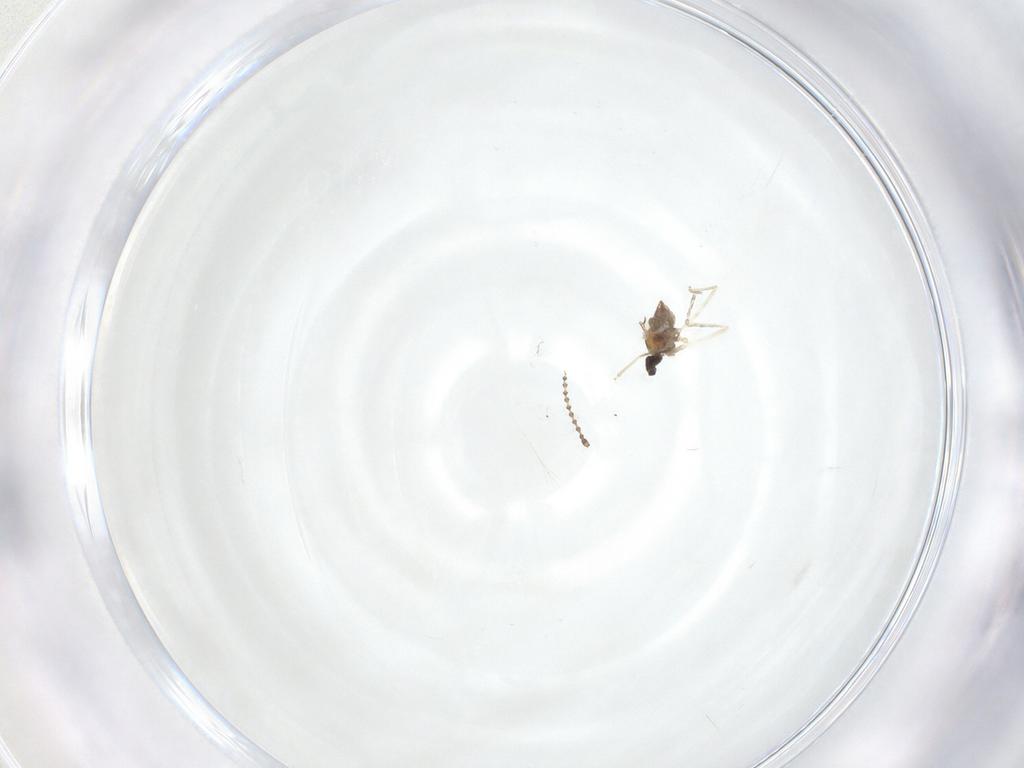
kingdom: Animalia
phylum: Arthropoda
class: Insecta
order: Diptera
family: Cecidomyiidae
